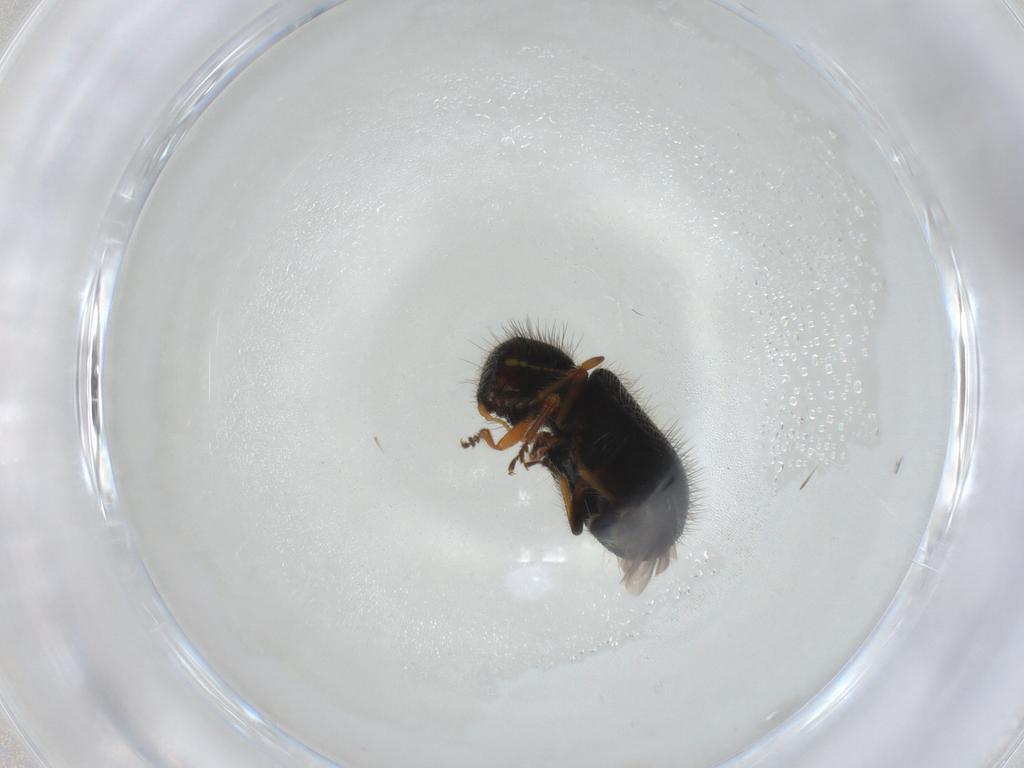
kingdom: Animalia
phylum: Arthropoda
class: Insecta
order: Coleoptera
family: Cleridae
